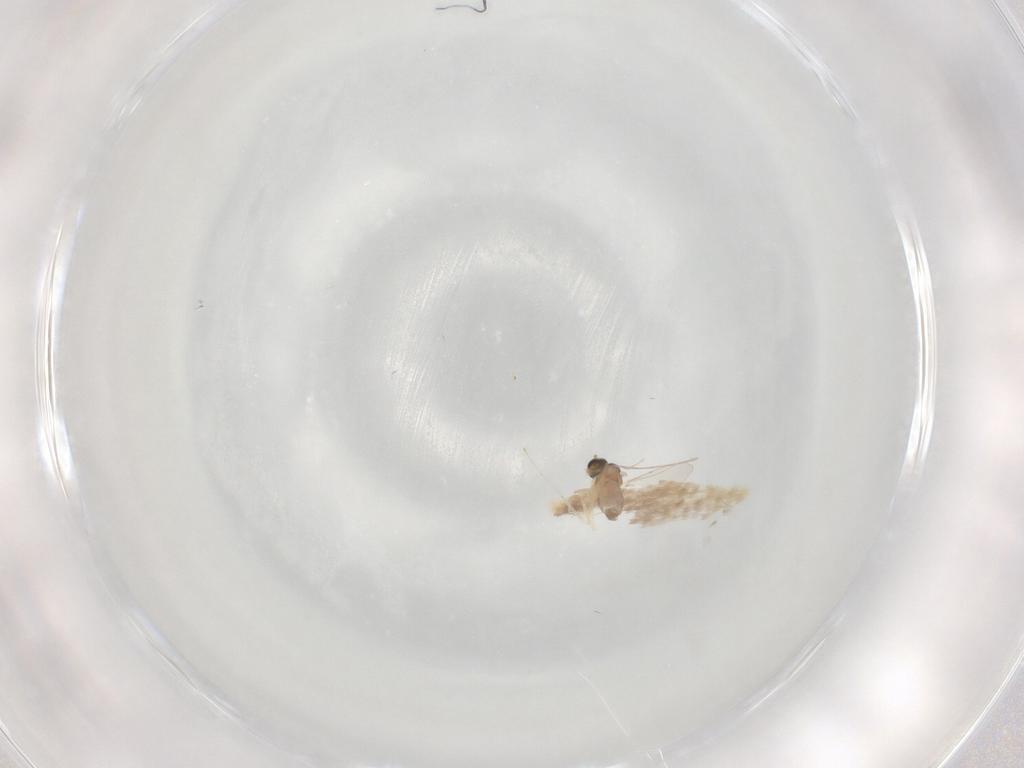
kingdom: Animalia
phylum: Arthropoda
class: Insecta
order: Diptera
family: Cecidomyiidae
